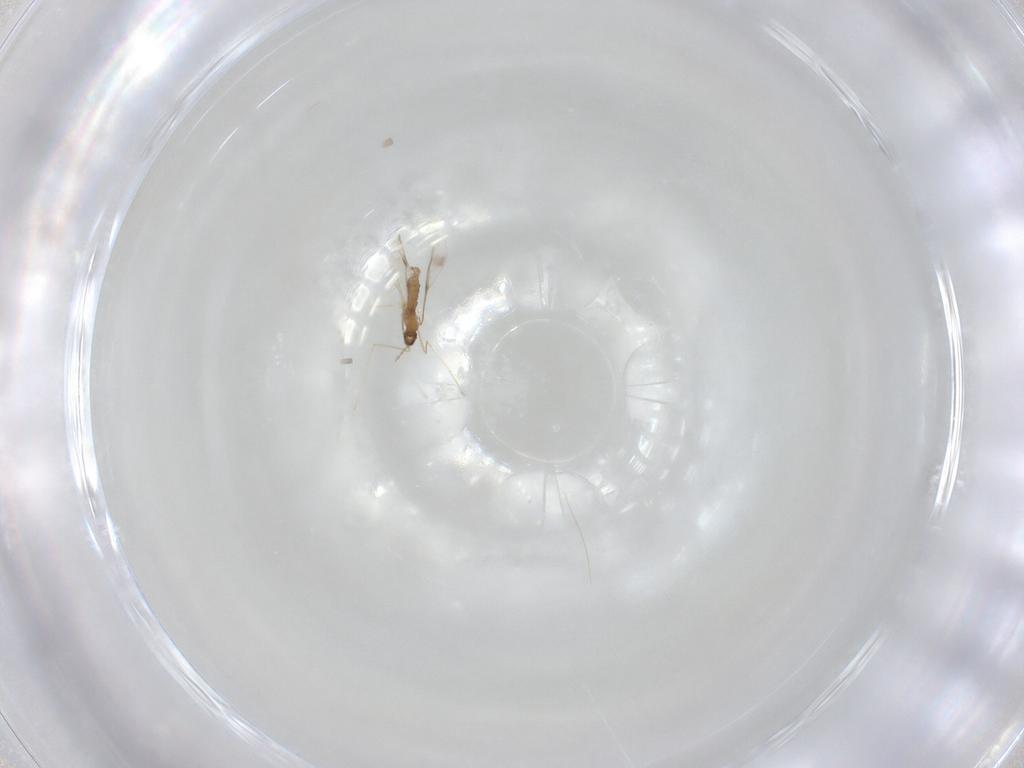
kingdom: Animalia
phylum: Arthropoda
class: Insecta
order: Diptera
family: Cecidomyiidae
